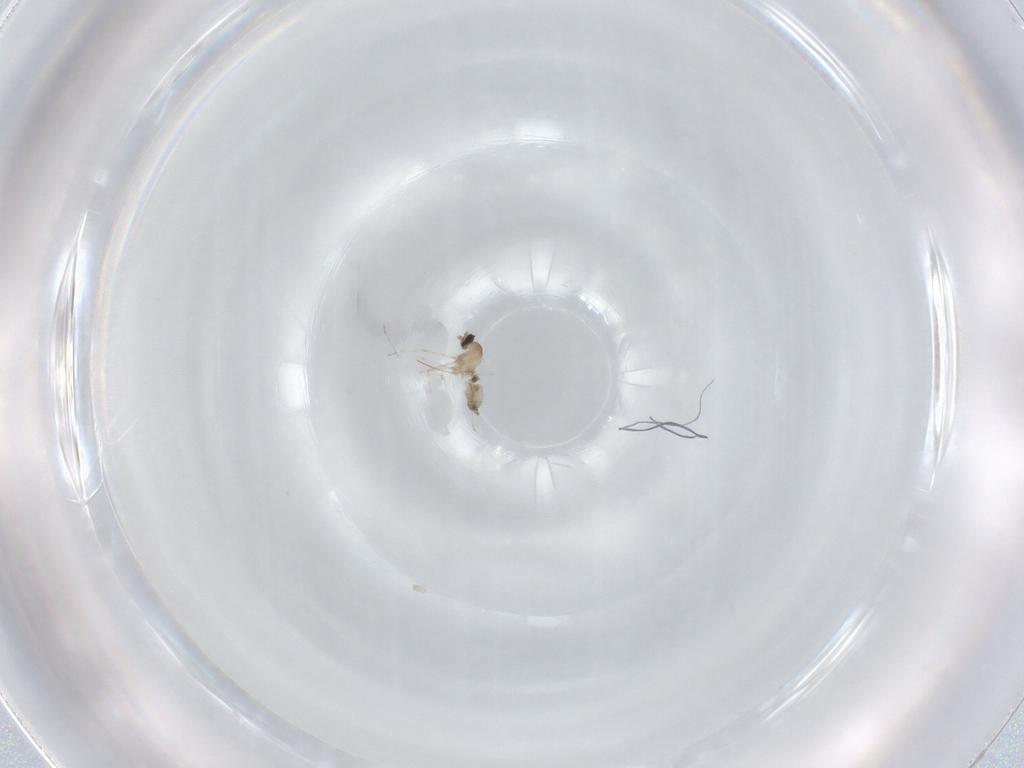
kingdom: Animalia
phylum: Arthropoda
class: Insecta
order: Diptera
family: Cecidomyiidae
